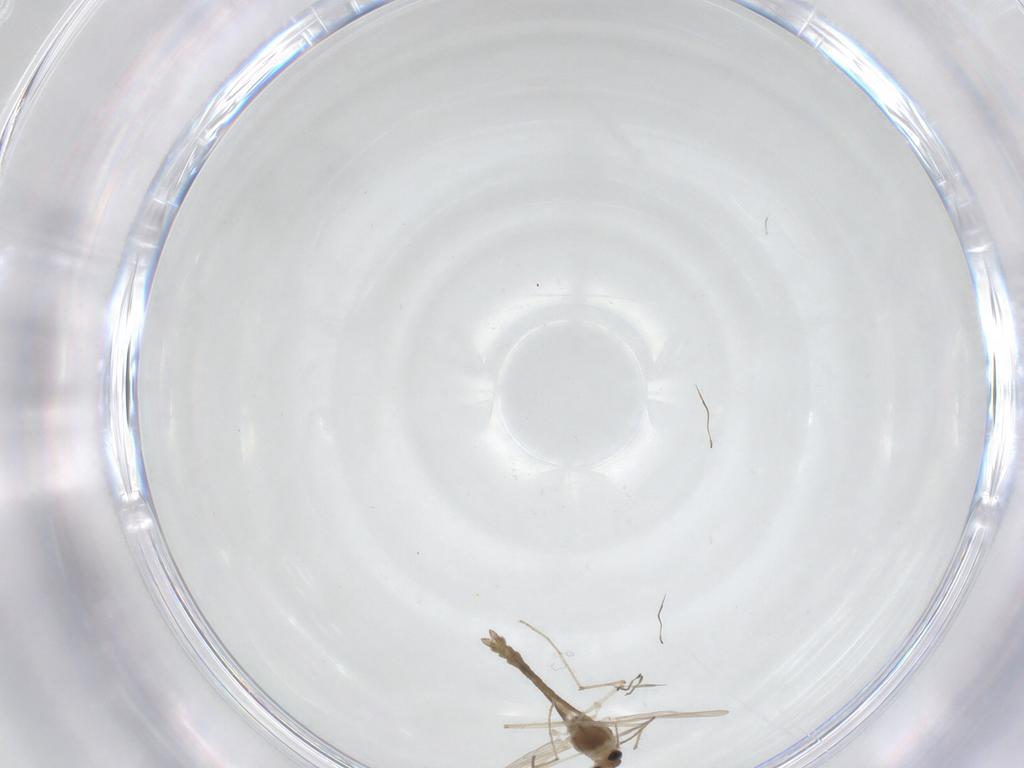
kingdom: Animalia
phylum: Arthropoda
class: Insecta
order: Diptera
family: Chironomidae
